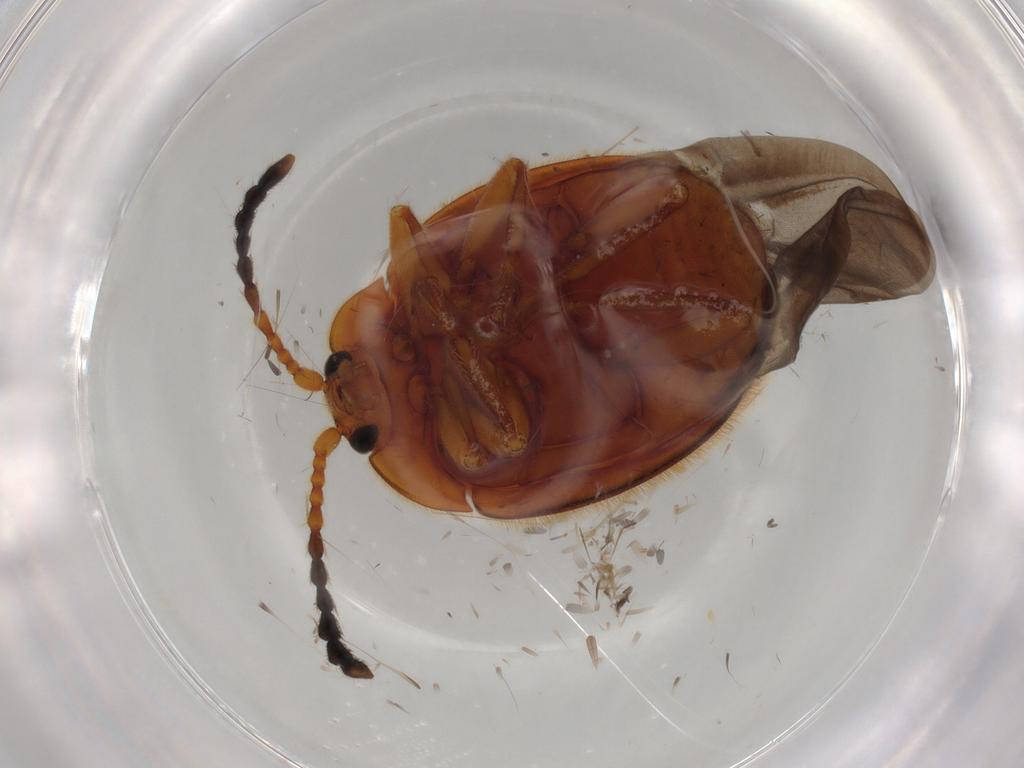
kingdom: Animalia
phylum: Arthropoda
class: Insecta
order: Coleoptera
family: Endomychidae
